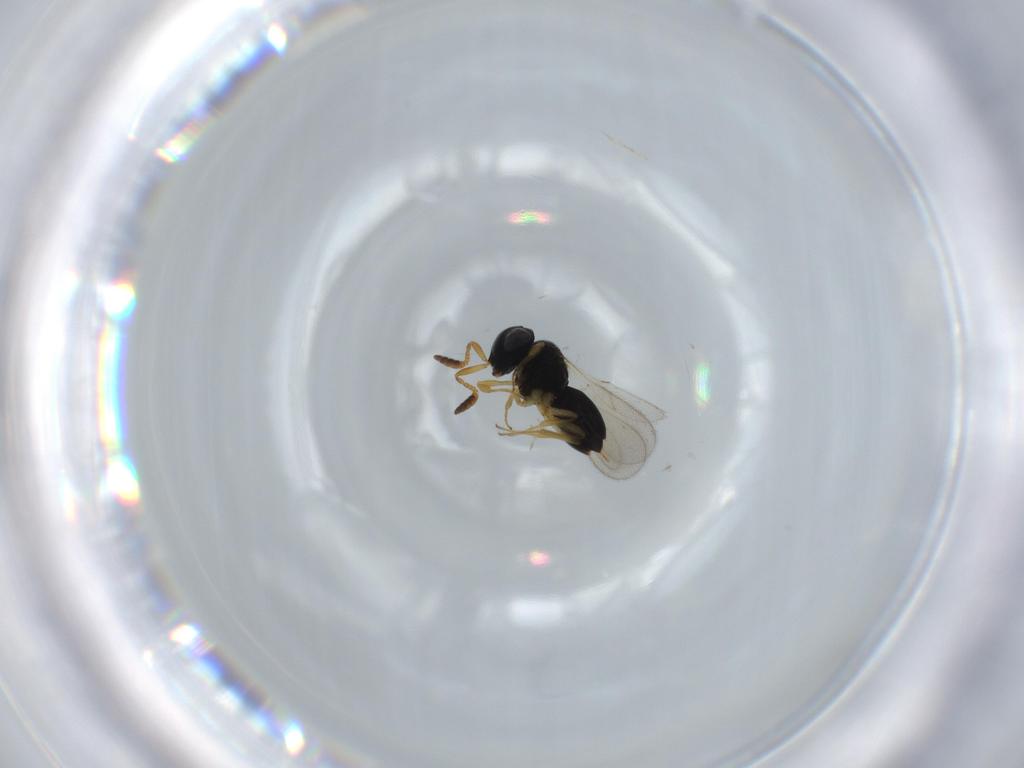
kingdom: Animalia
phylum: Arthropoda
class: Insecta
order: Hymenoptera
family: Scelionidae
